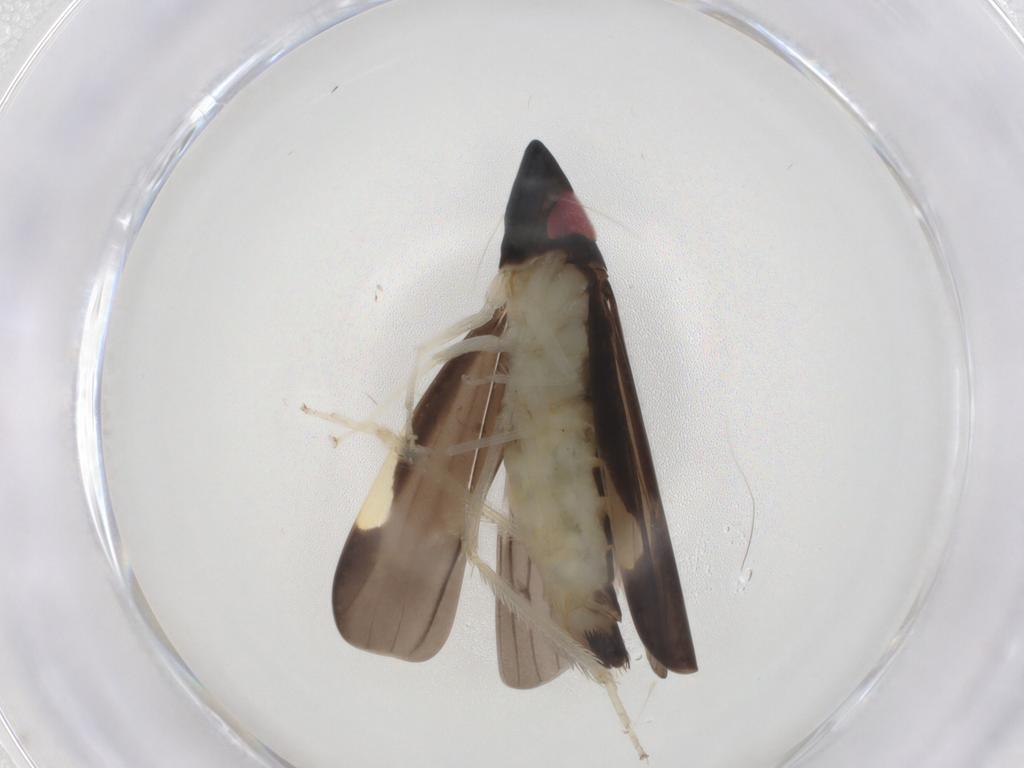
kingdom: Animalia
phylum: Arthropoda
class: Insecta
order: Hemiptera
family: Cicadellidae
